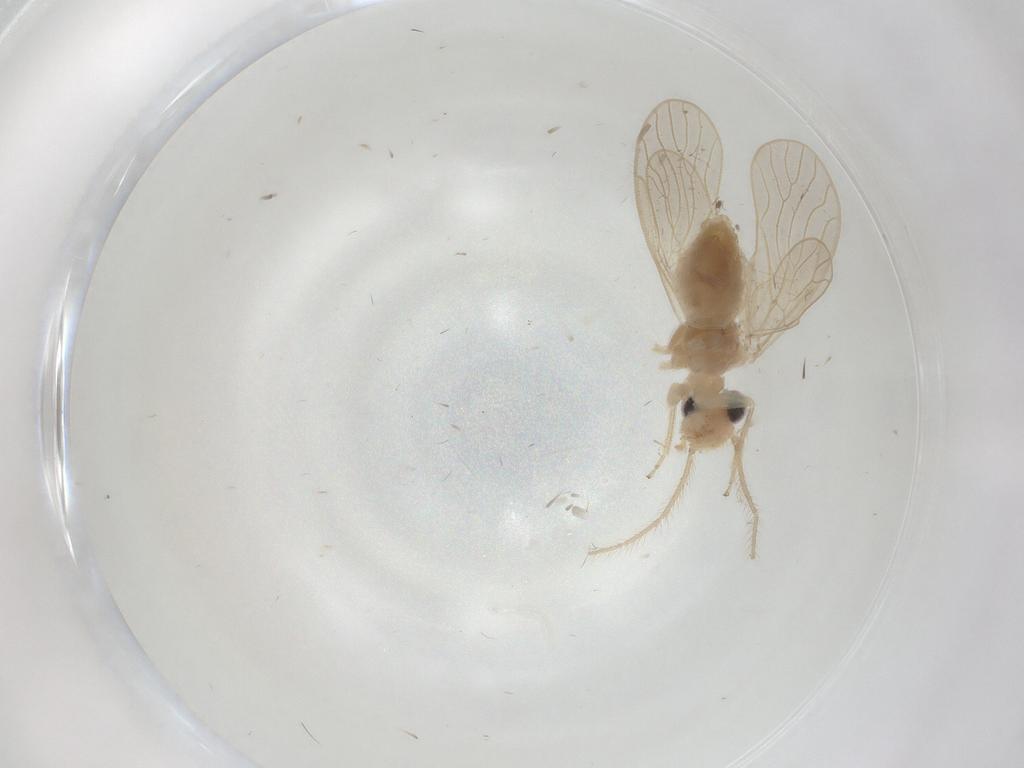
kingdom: Animalia
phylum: Arthropoda
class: Insecta
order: Psocodea
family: Cladiopsocidae
